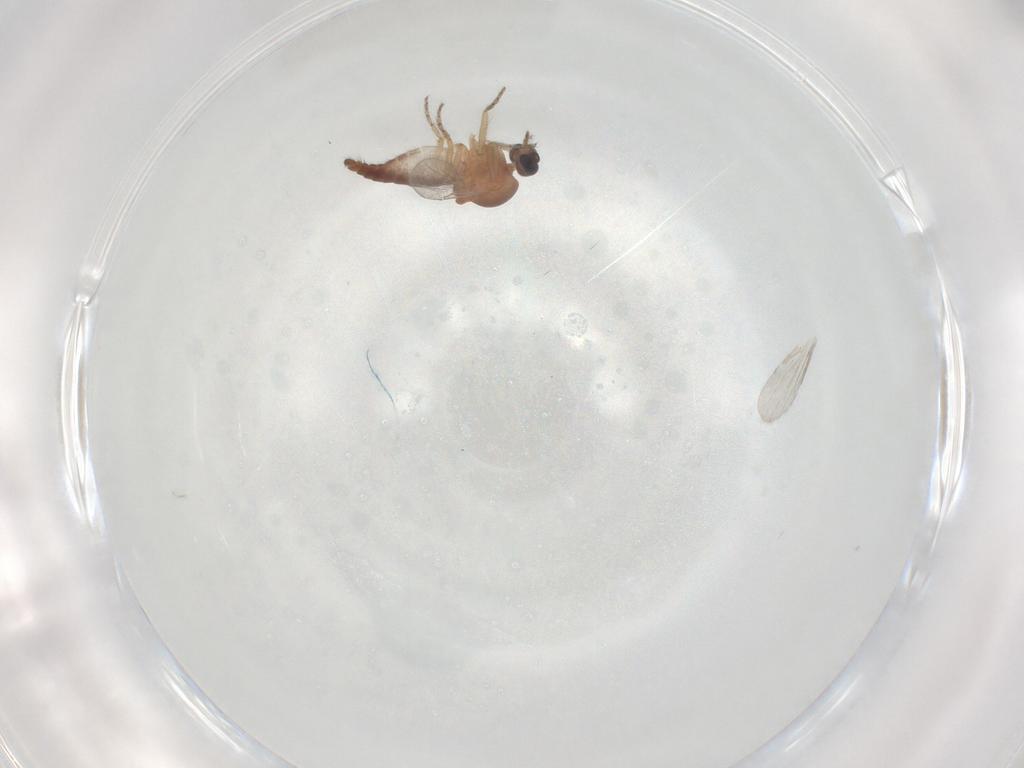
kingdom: Animalia
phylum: Arthropoda
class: Insecta
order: Diptera
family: Ceratopogonidae
